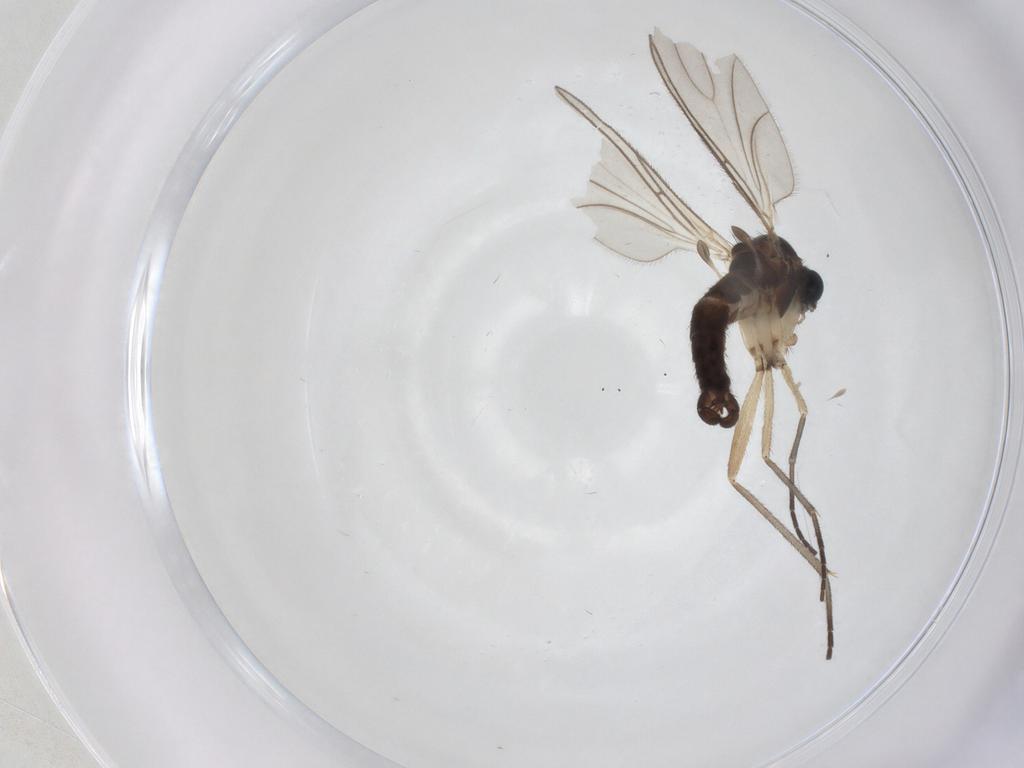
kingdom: Animalia
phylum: Arthropoda
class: Insecta
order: Diptera
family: Sciaridae
